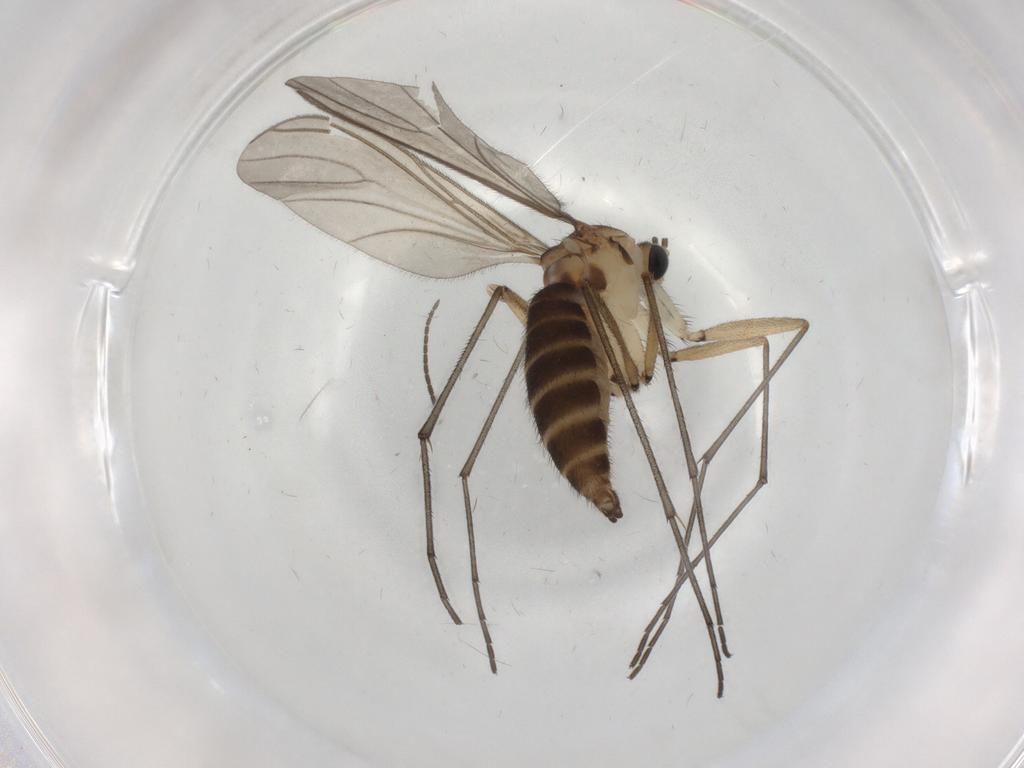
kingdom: Animalia
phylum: Arthropoda
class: Insecta
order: Diptera
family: Sciaridae
